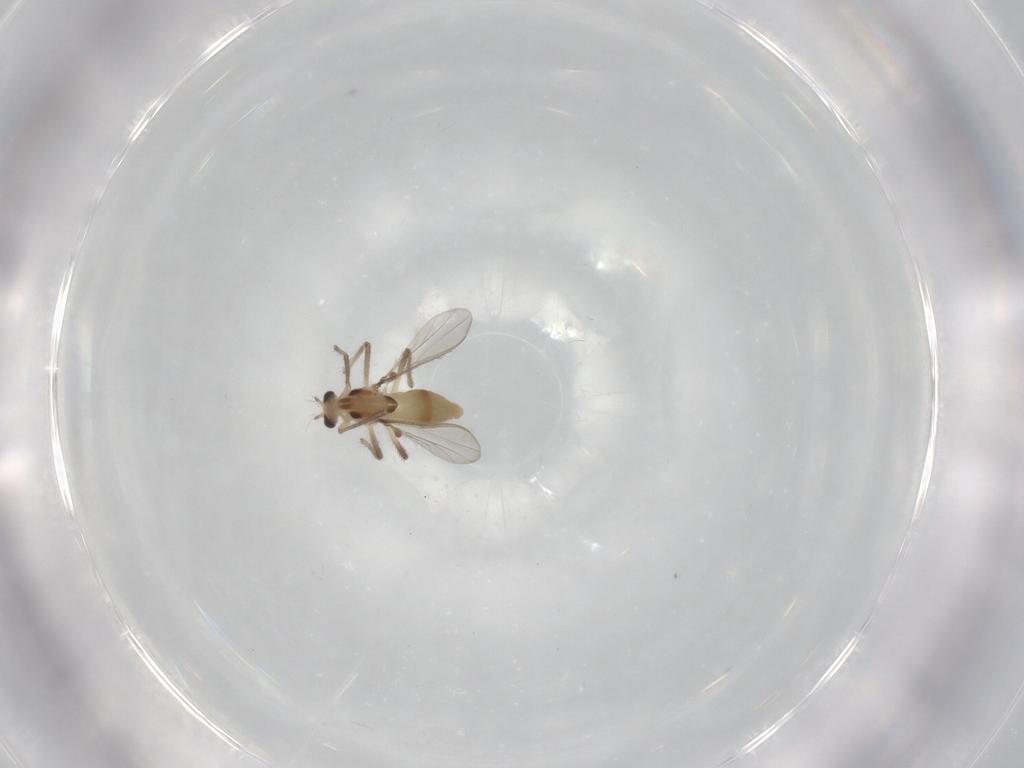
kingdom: Animalia
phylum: Arthropoda
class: Insecta
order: Diptera
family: Chironomidae
